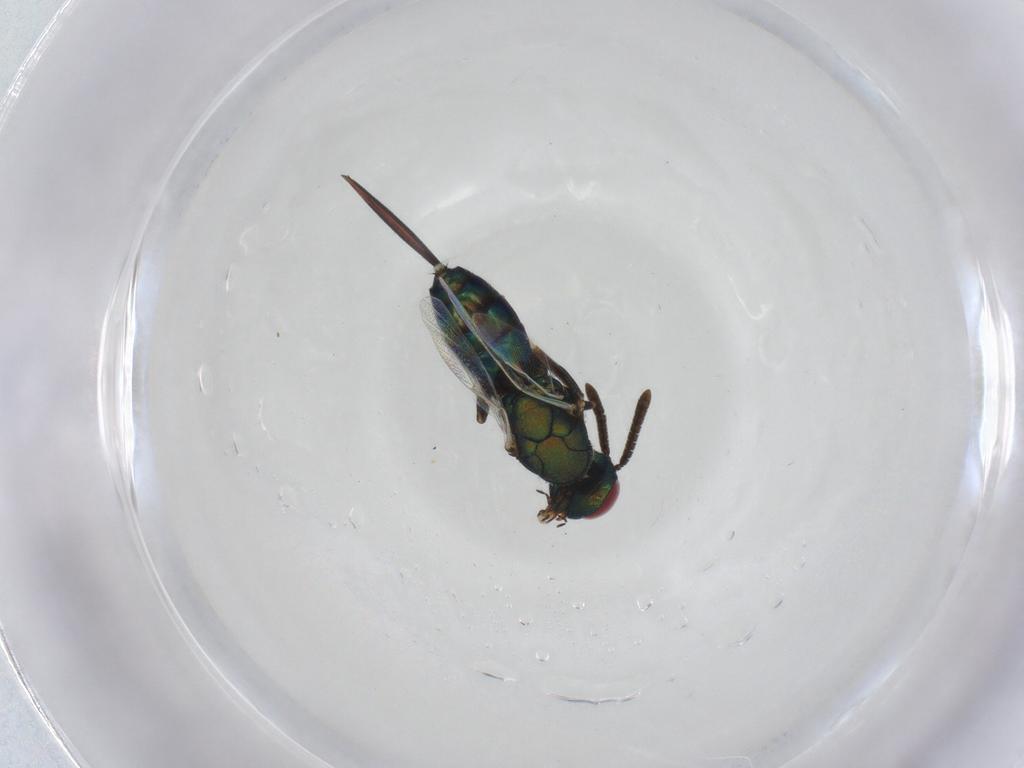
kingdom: Animalia
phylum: Arthropoda
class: Insecta
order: Hymenoptera
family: Torymidae
